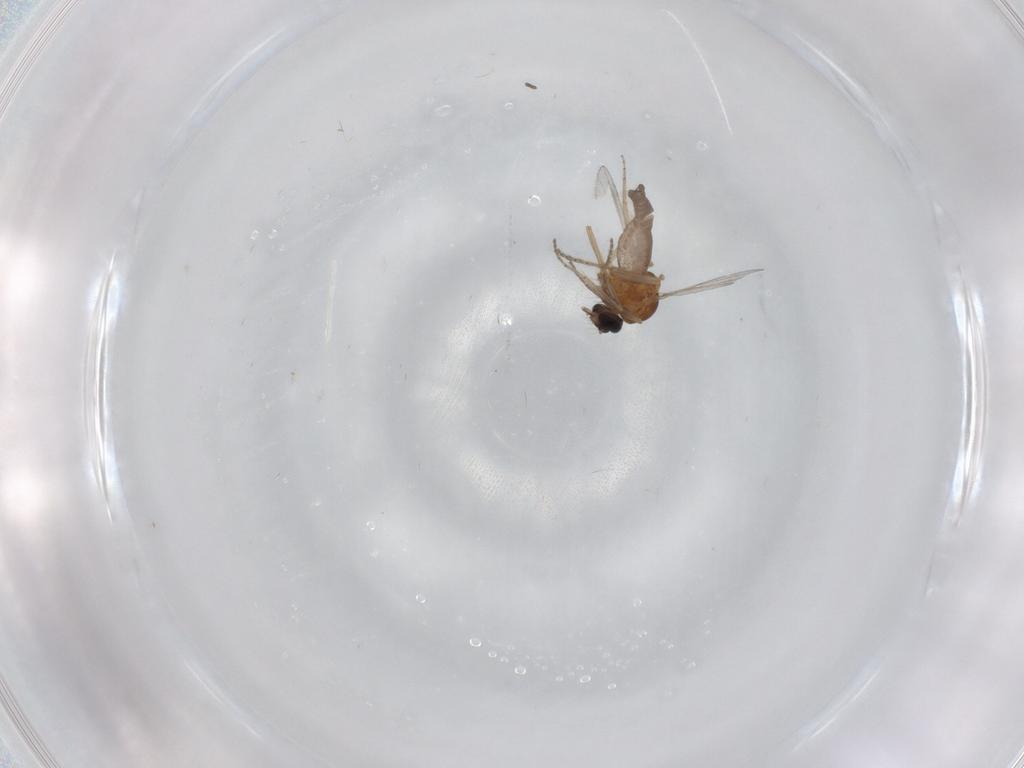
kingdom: Animalia
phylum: Arthropoda
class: Insecta
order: Diptera
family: Ceratopogonidae
